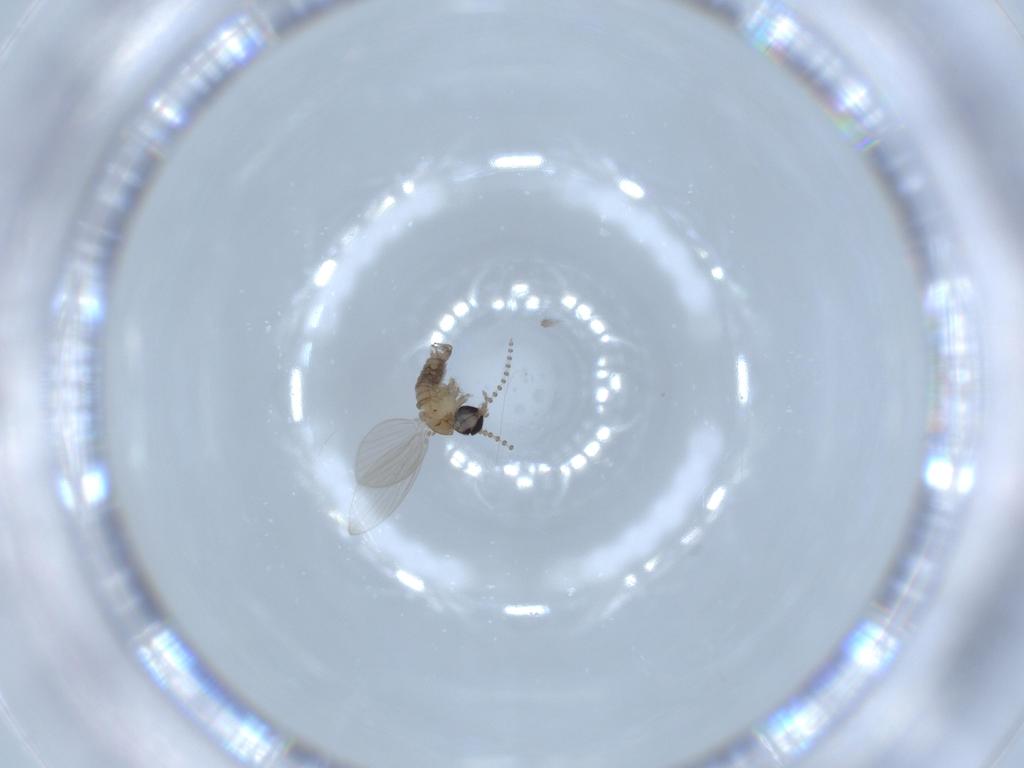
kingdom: Animalia
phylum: Arthropoda
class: Insecta
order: Diptera
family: Psychodidae
